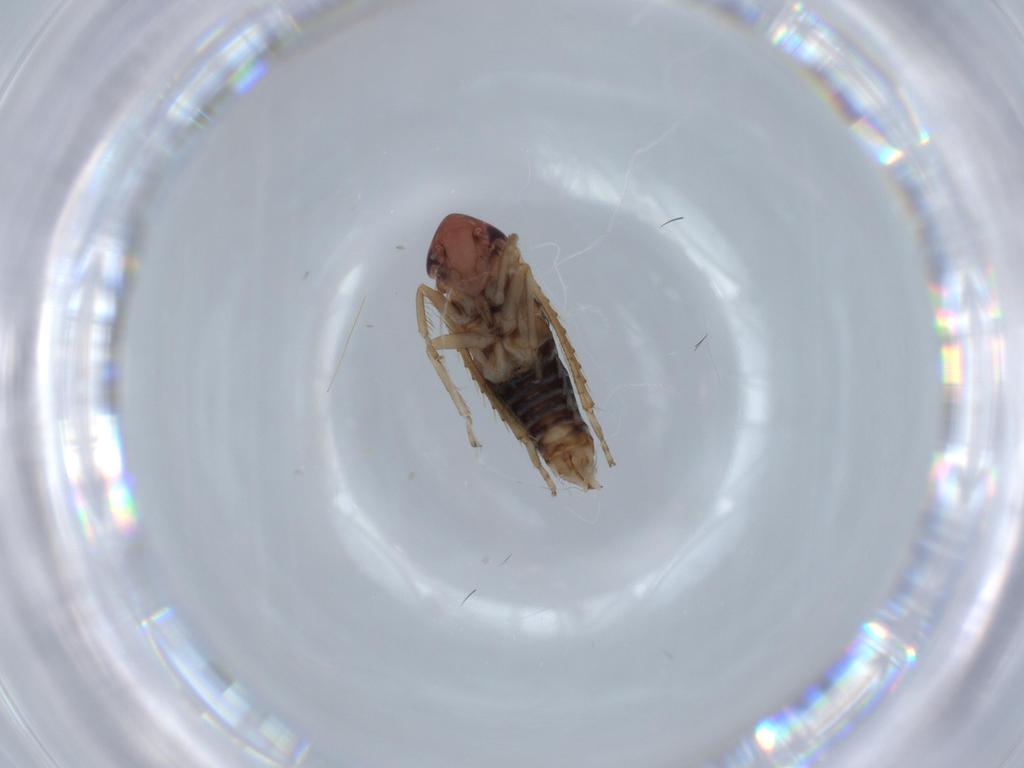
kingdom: Animalia
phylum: Arthropoda
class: Insecta
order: Hemiptera
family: Cicadellidae
